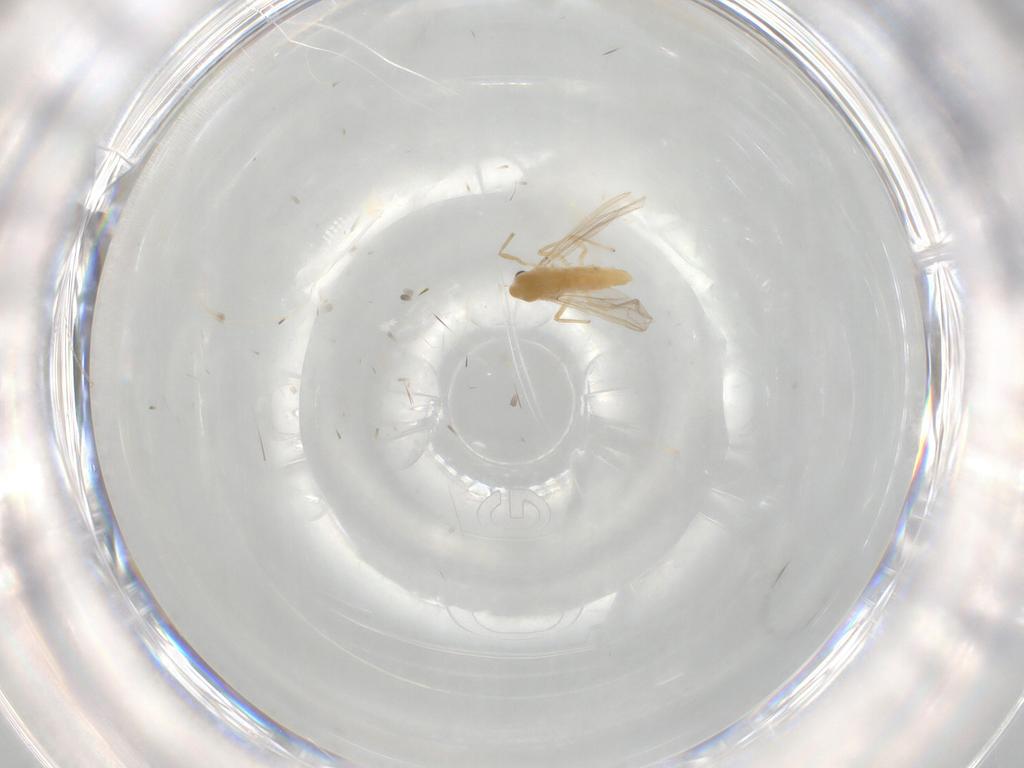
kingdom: Animalia
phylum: Arthropoda
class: Insecta
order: Diptera
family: Chironomidae
